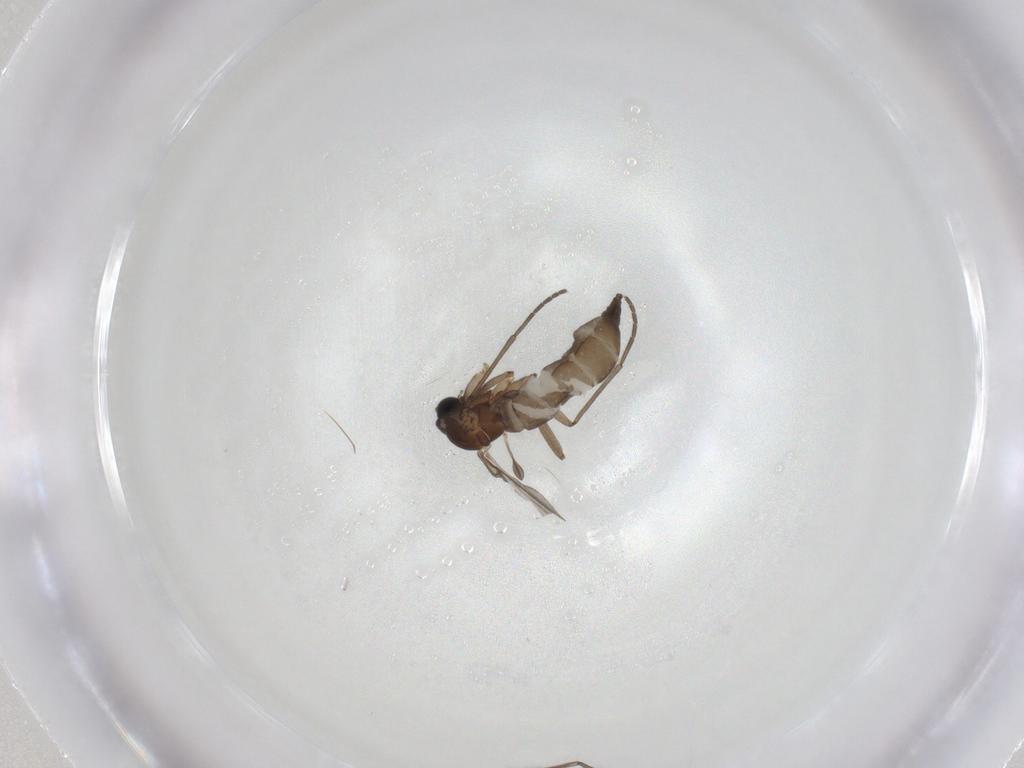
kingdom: Animalia
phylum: Arthropoda
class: Insecta
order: Diptera
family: Sciaridae
